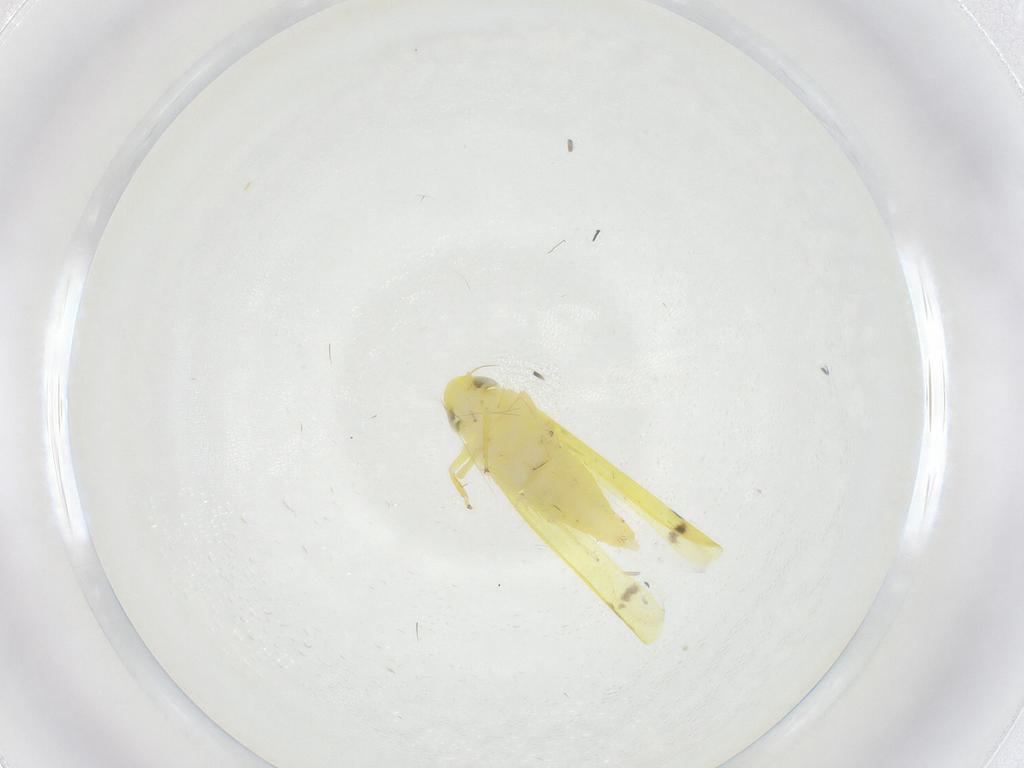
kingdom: Animalia
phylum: Arthropoda
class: Insecta
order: Hemiptera
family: Cicadellidae
